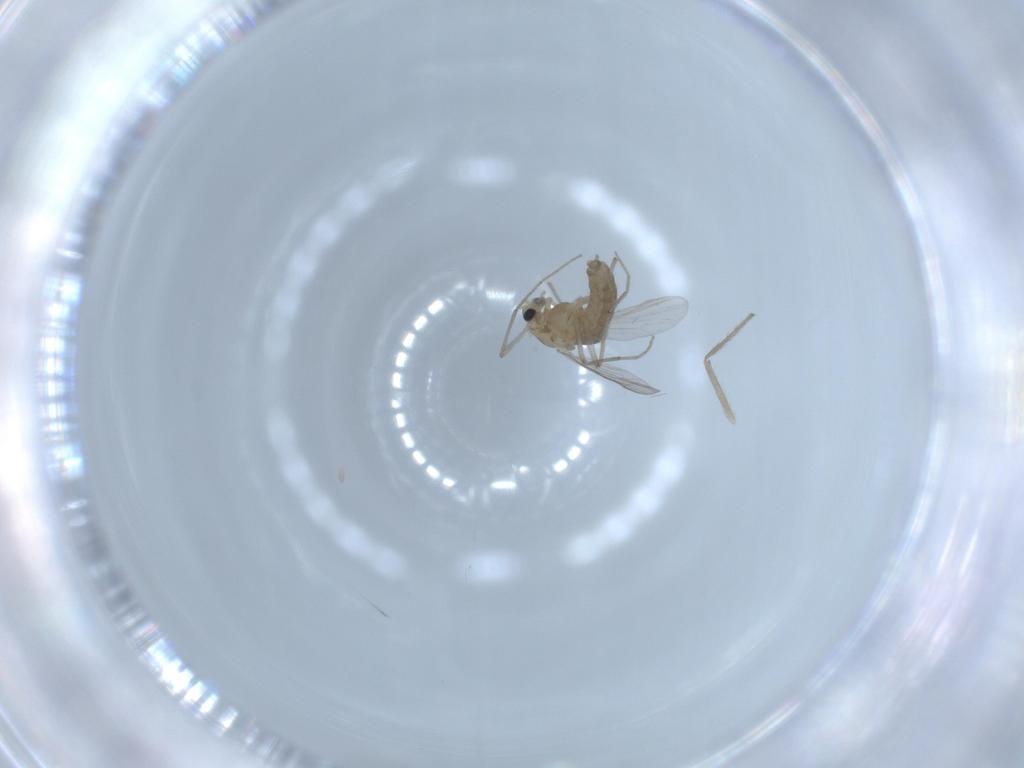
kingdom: Animalia
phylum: Arthropoda
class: Insecta
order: Diptera
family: Chironomidae
